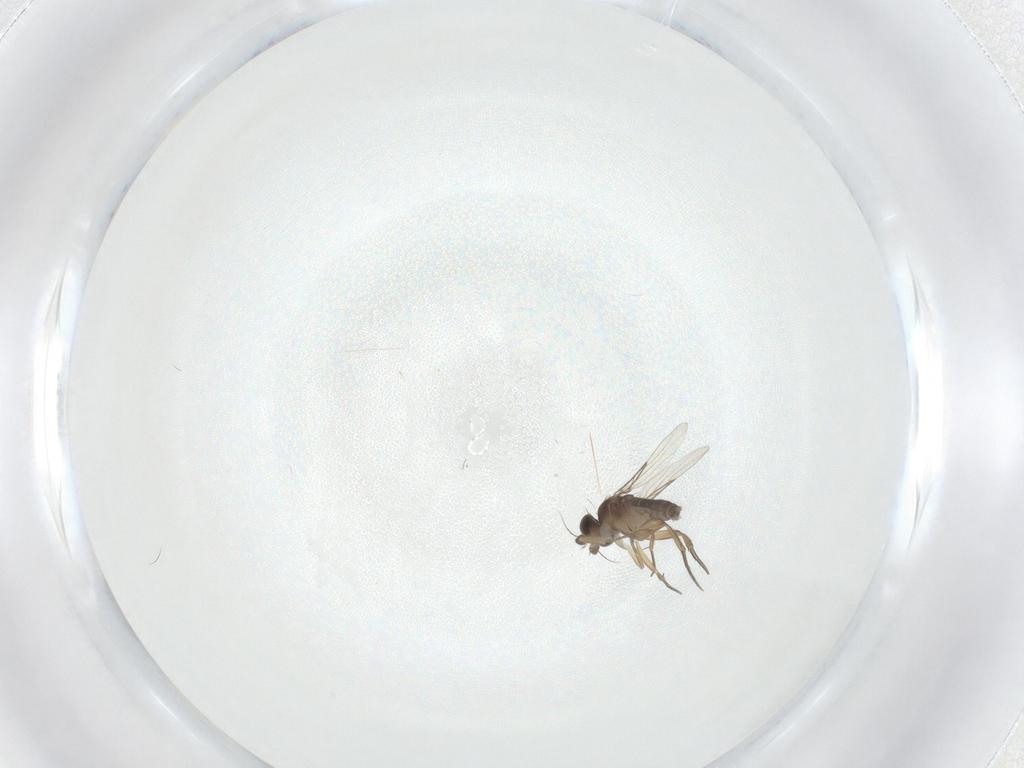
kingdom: Animalia
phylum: Arthropoda
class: Insecta
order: Diptera
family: Phoridae
